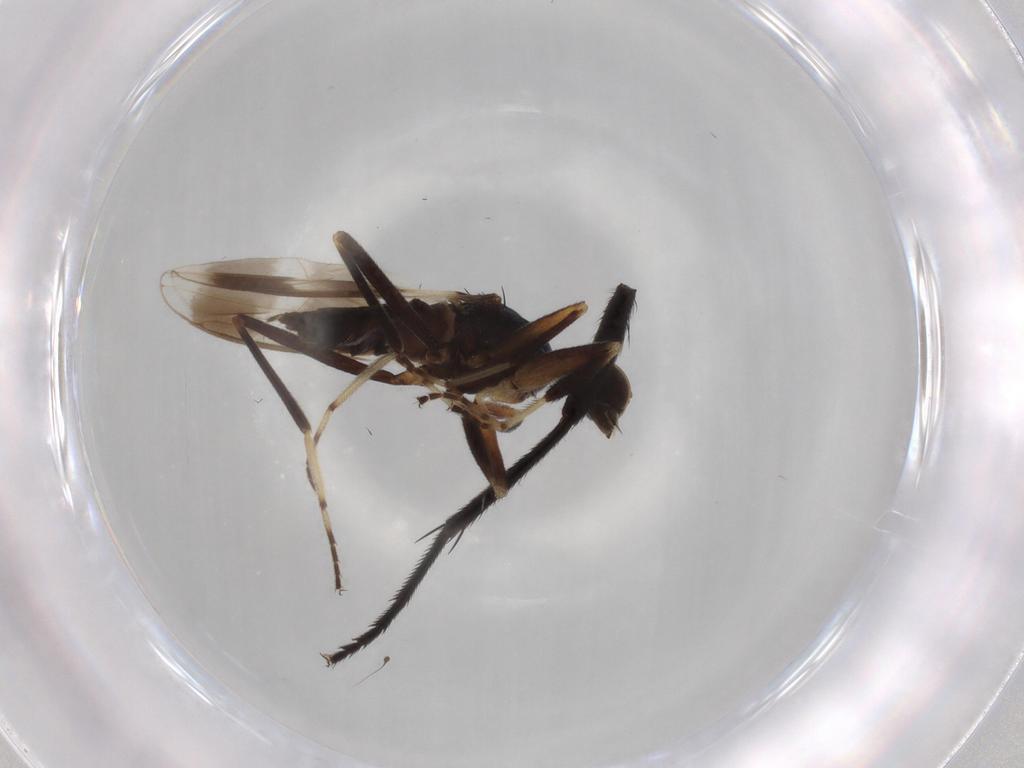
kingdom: Animalia
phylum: Arthropoda
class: Insecta
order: Diptera
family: Hybotidae
